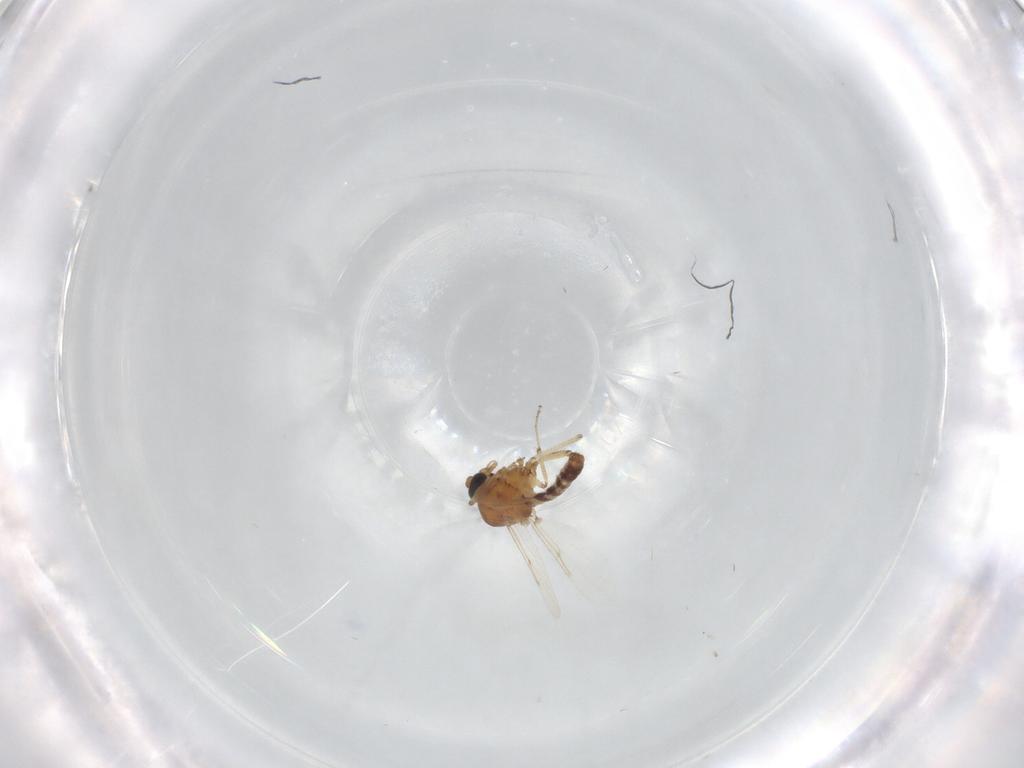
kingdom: Animalia
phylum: Arthropoda
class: Insecta
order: Diptera
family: Ceratopogonidae
